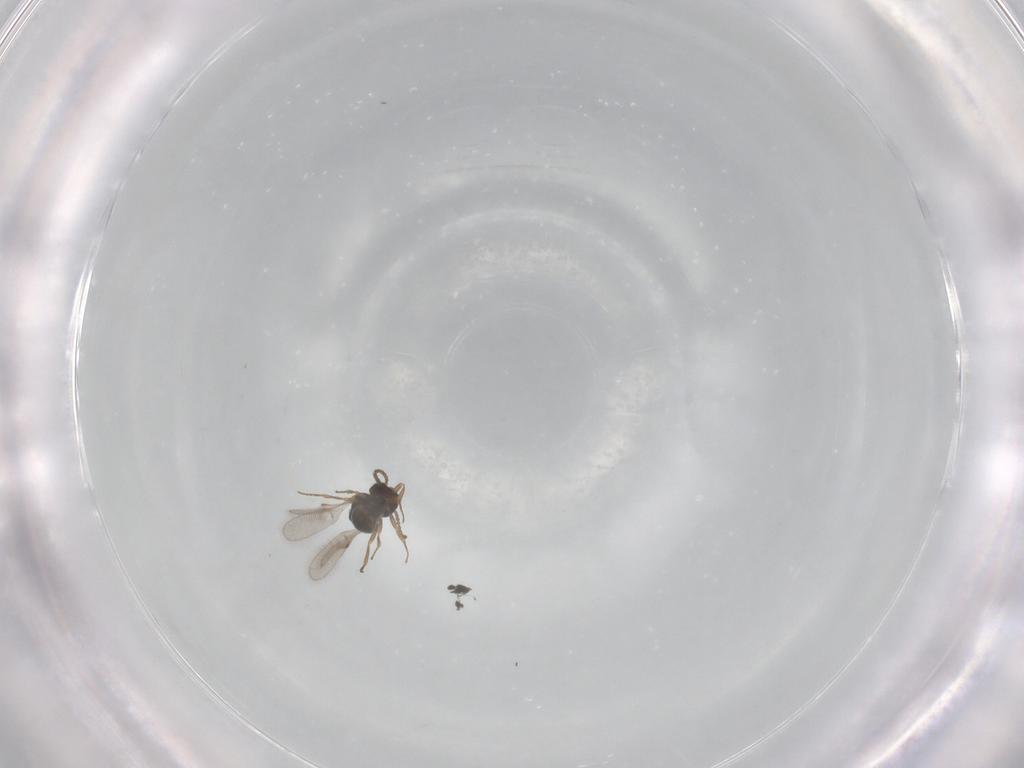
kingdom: Animalia
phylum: Arthropoda
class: Insecta
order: Hymenoptera
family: Scelionidae
